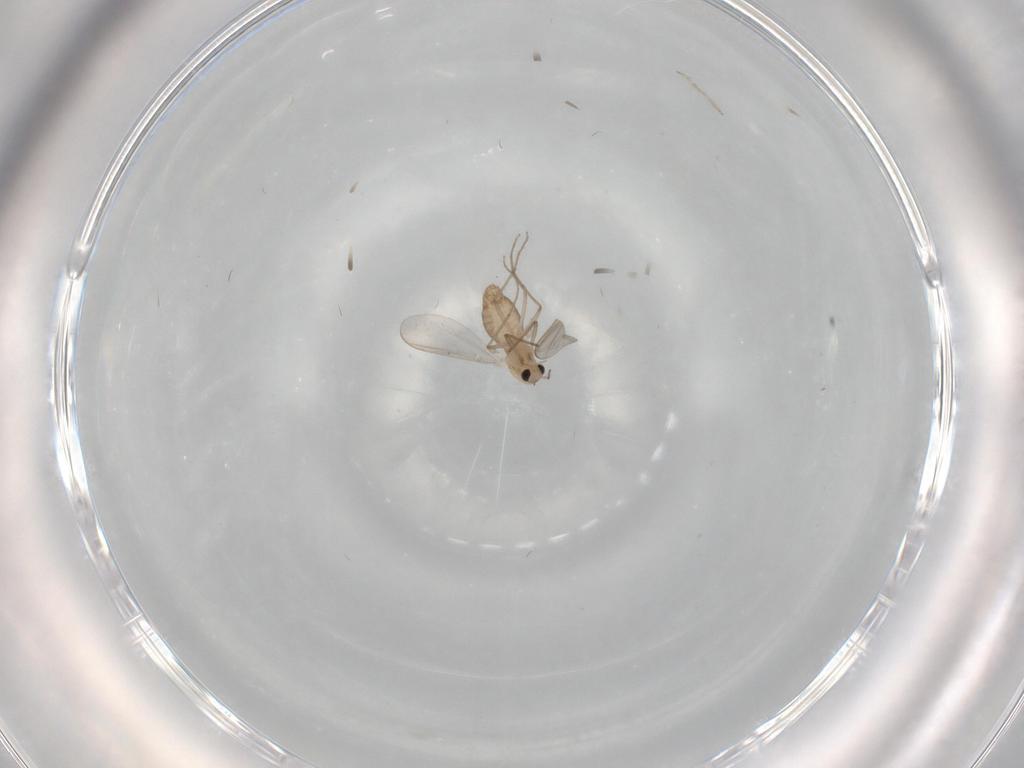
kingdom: Animalia
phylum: Arthropoda
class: Insecta
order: Diptera
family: Chironomidae
